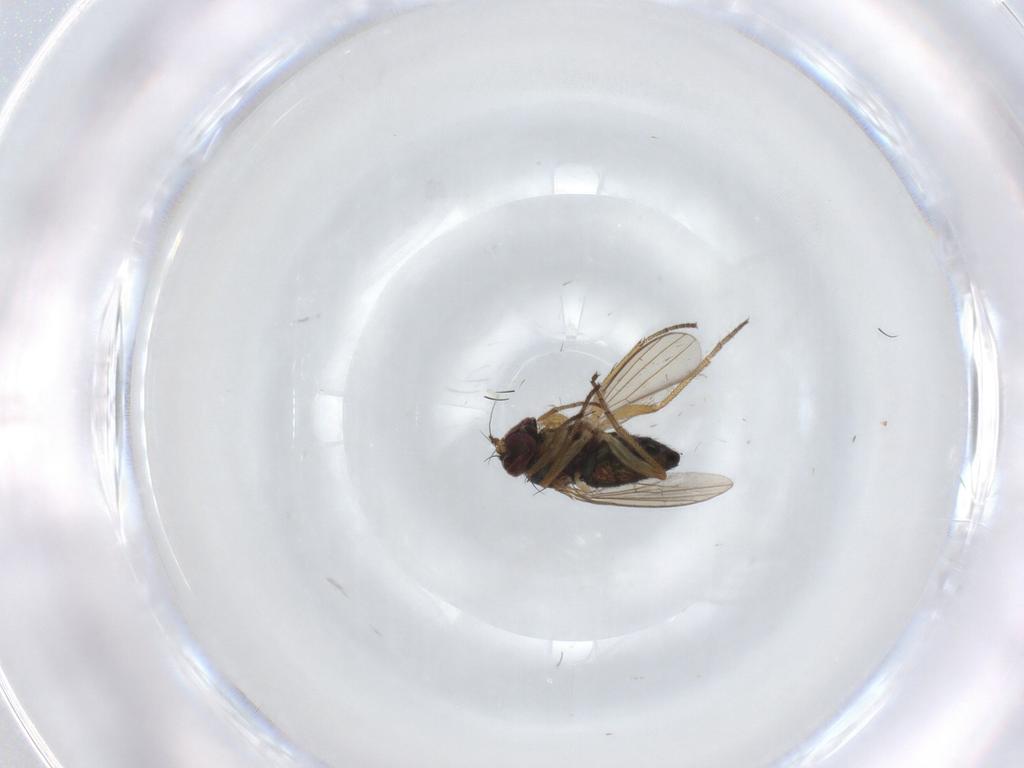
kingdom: Animalia
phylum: Arthropoda
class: Insecta
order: Diptera
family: Dolichopodidae
